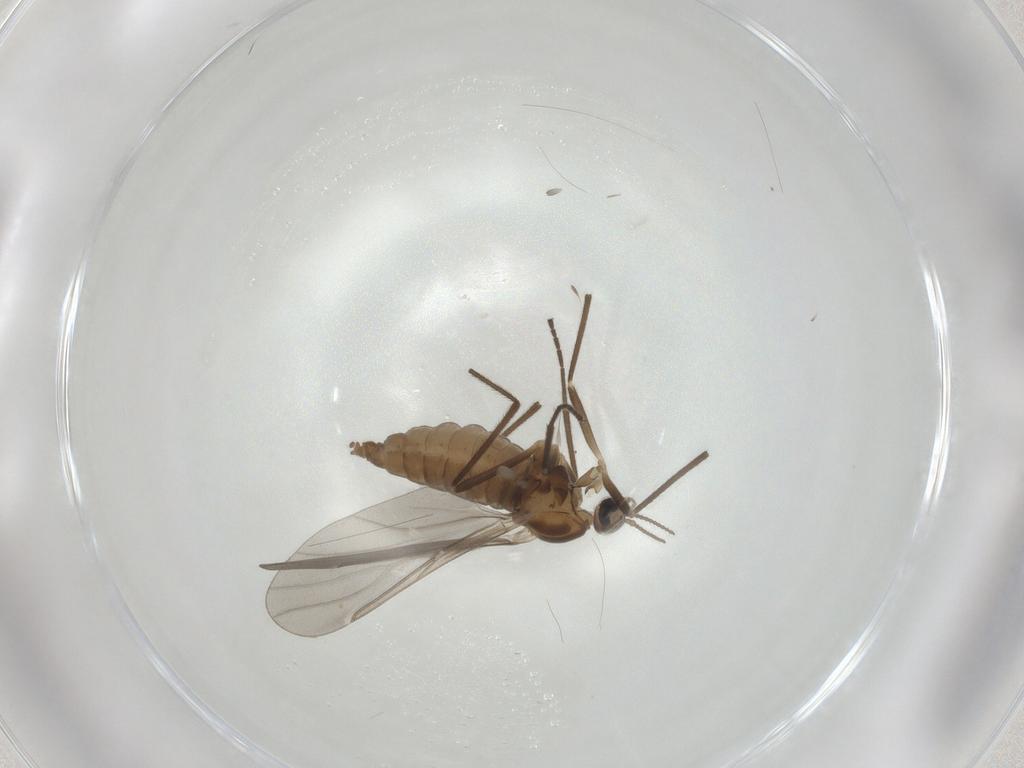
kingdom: Animalia
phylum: Arthropoda
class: Insecta
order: Diptera
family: Cecidomyiidae
